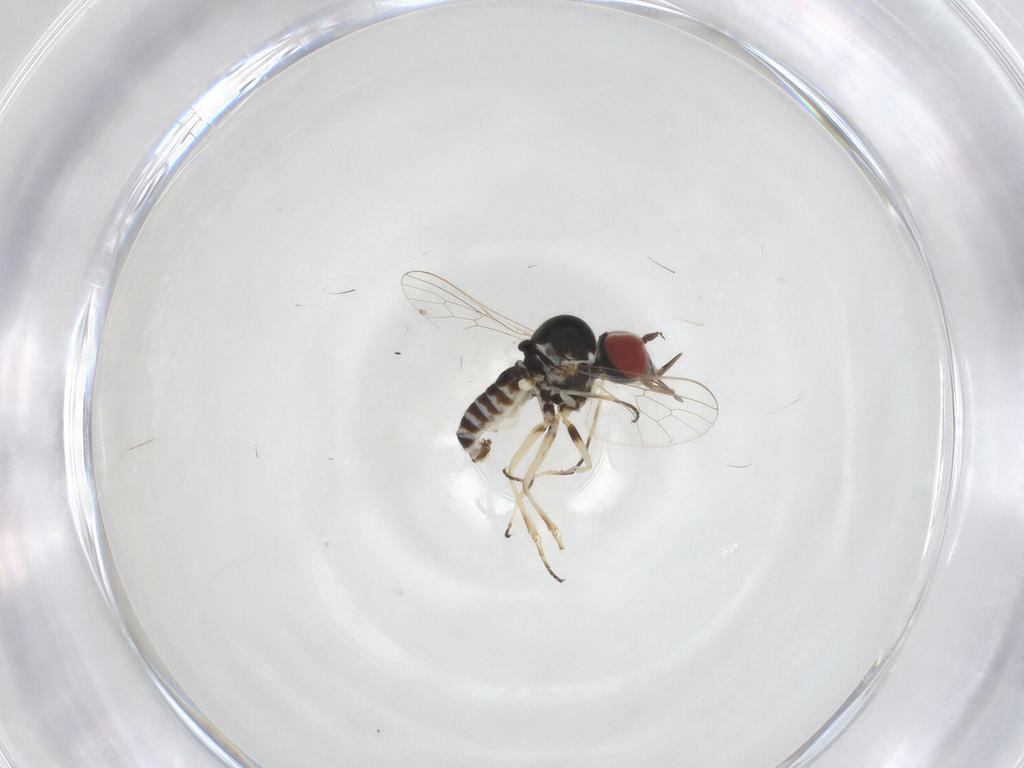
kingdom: Animalia
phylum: Arthropoda
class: Insecta
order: Diptera
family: Mythicomyiidae
